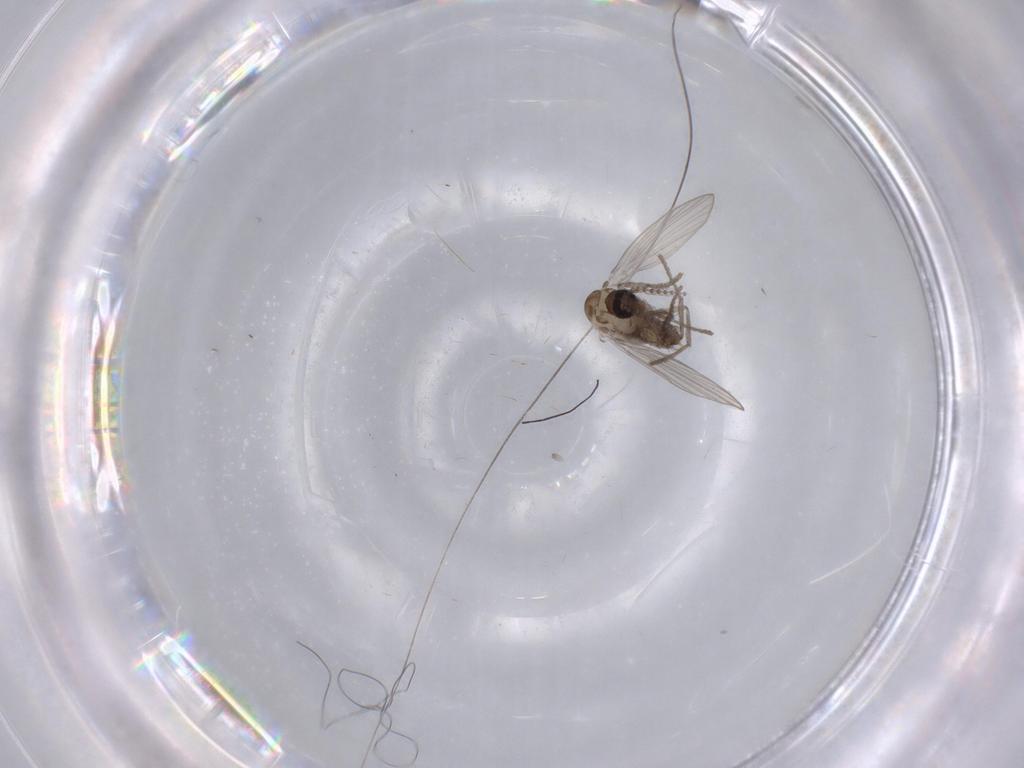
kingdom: Animalia
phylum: Arthropoda
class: Insecta
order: Diptera
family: Psychodidae
